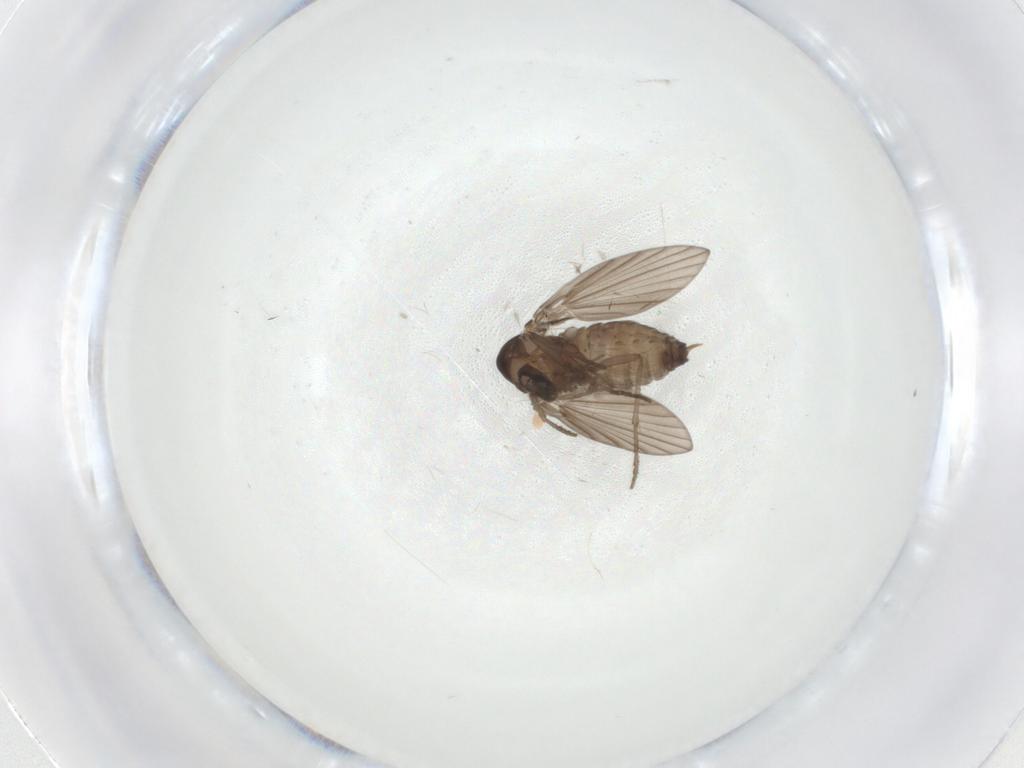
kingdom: Animalia
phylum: Arthropoda
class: Insecta
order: Diptera
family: Psychodidae
